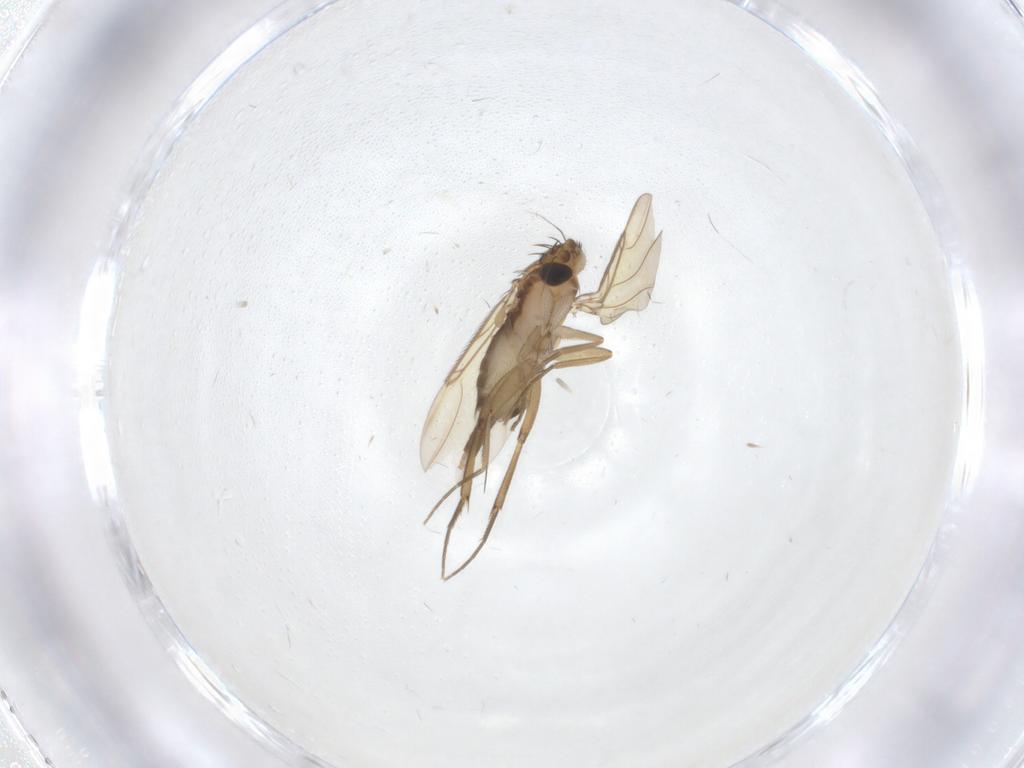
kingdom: Animalia
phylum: Arthropoda
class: Insecta
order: Diptera
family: Phoridae
